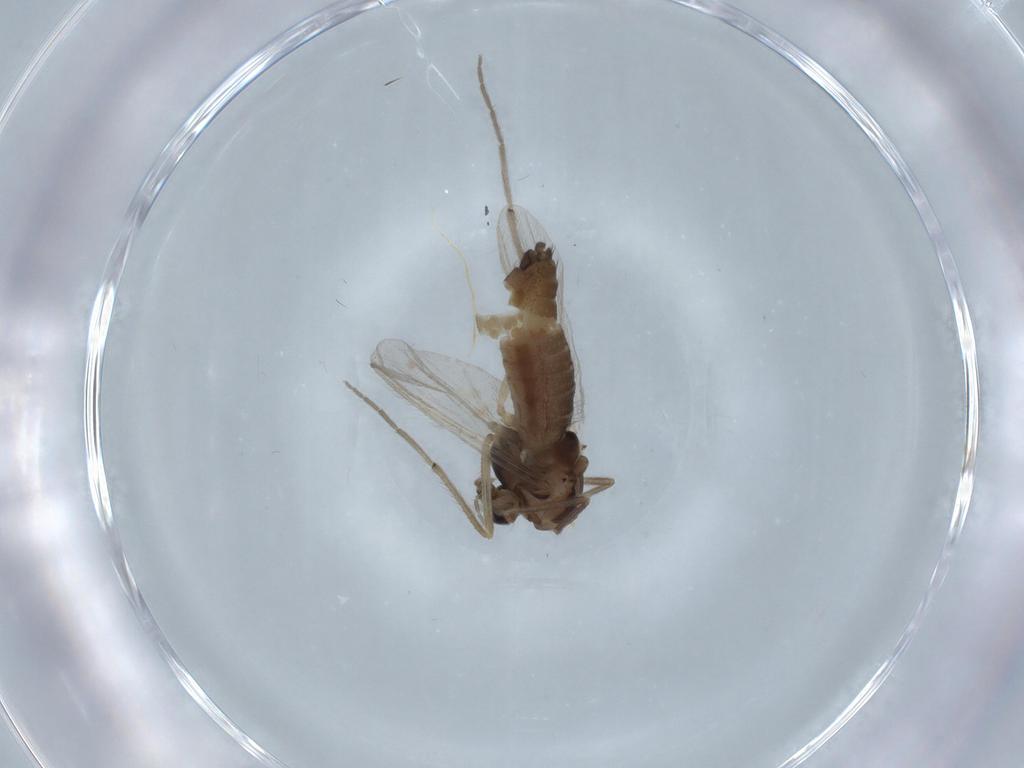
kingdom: Animalia
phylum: Arthropoda
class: Insecta
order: Diptera
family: Chironomidae
